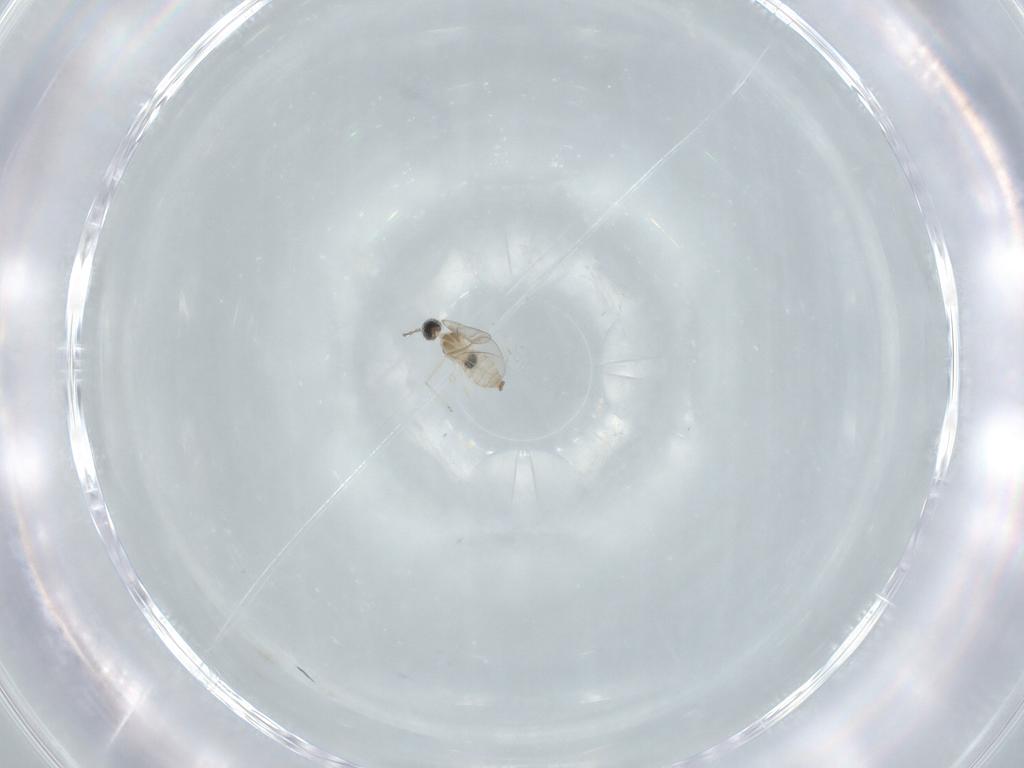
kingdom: Animalia
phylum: Arthropoda
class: Insecta
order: Diptera
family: Cecidomyiidae
